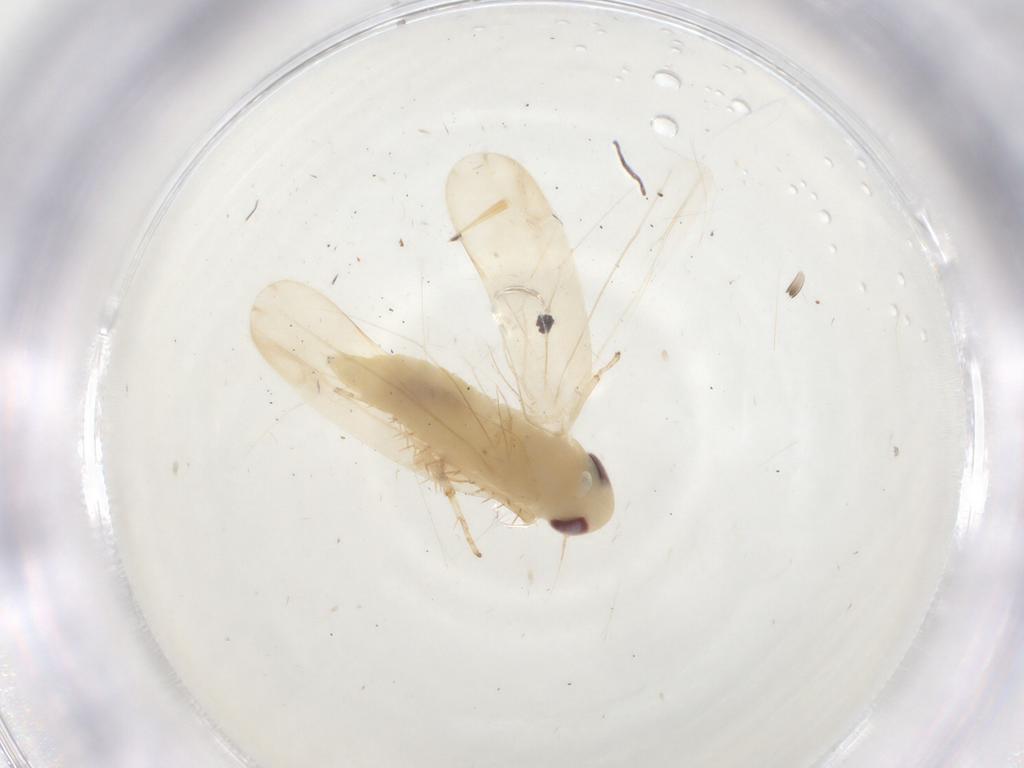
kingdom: Animalia
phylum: Arthropoda
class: Insecta
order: Hemiptera
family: Cicadellidae
